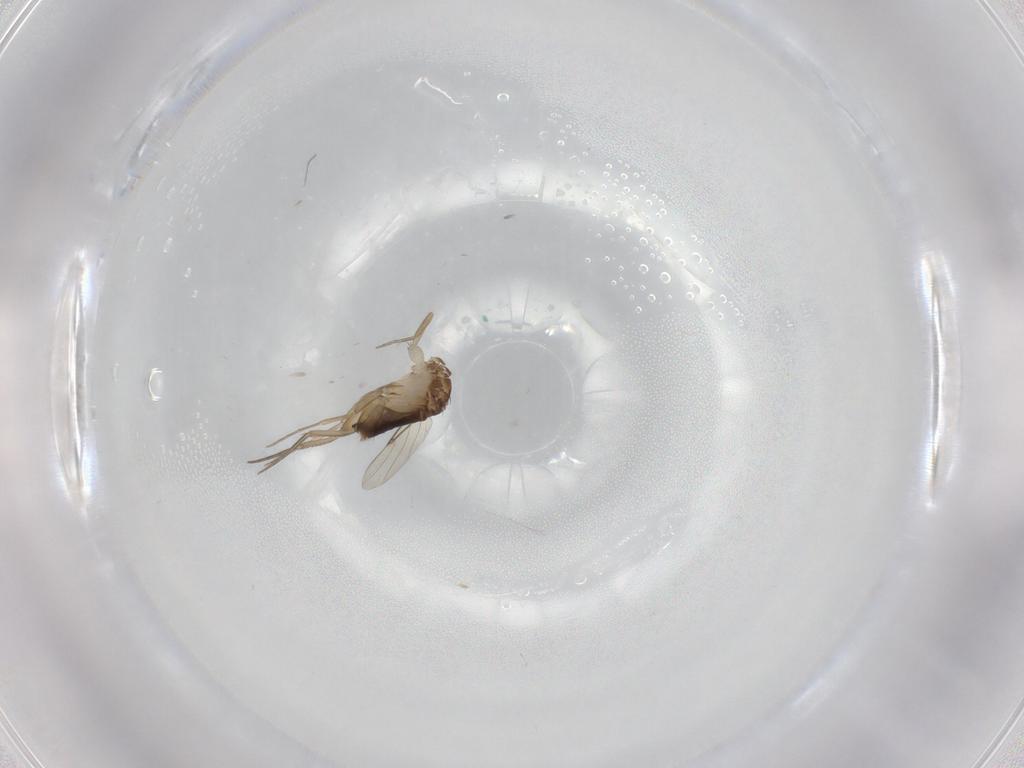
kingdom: Animalia
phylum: Arthropoda
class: Insecta
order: Diptera
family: Phoridae
